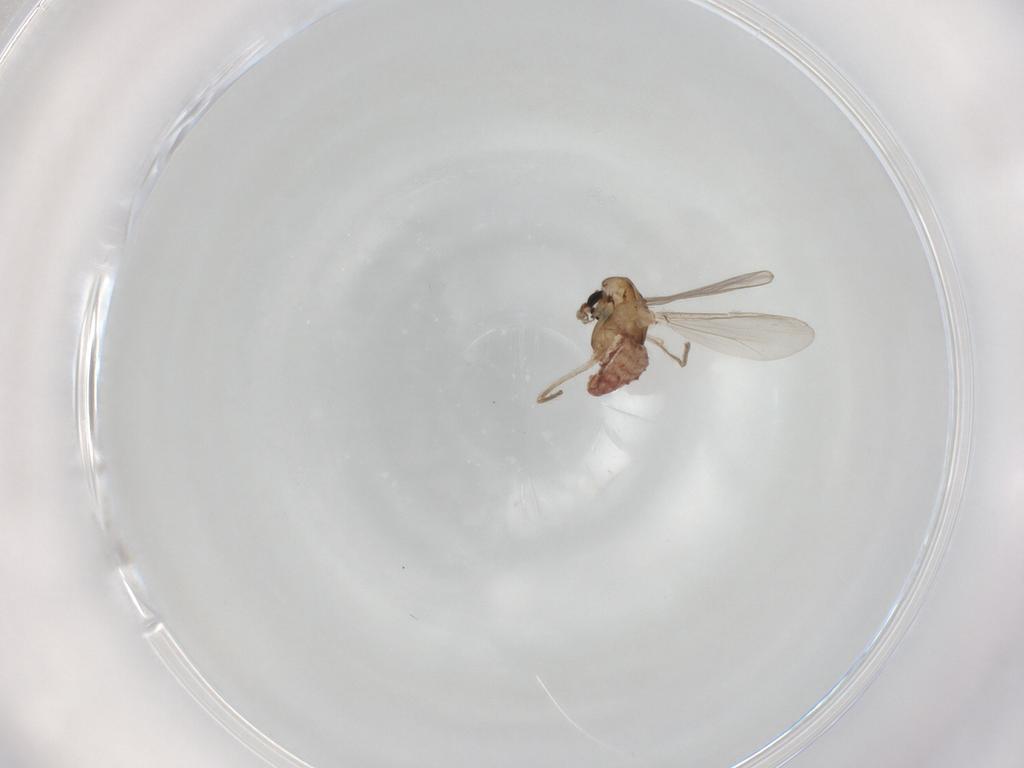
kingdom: Animalia
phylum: Arthropoda
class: Insecta
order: Diptera
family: Chironomidae
